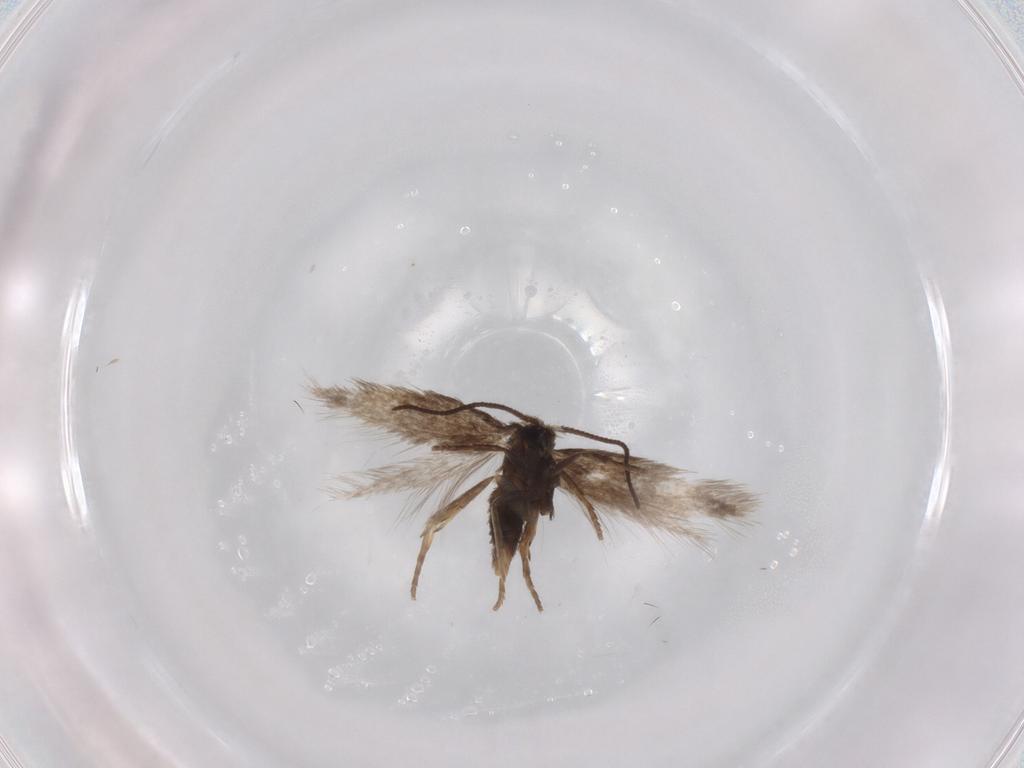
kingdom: Animalia
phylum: Arthropoda
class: Insecta
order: Lepidoptera
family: Nepticulidae
